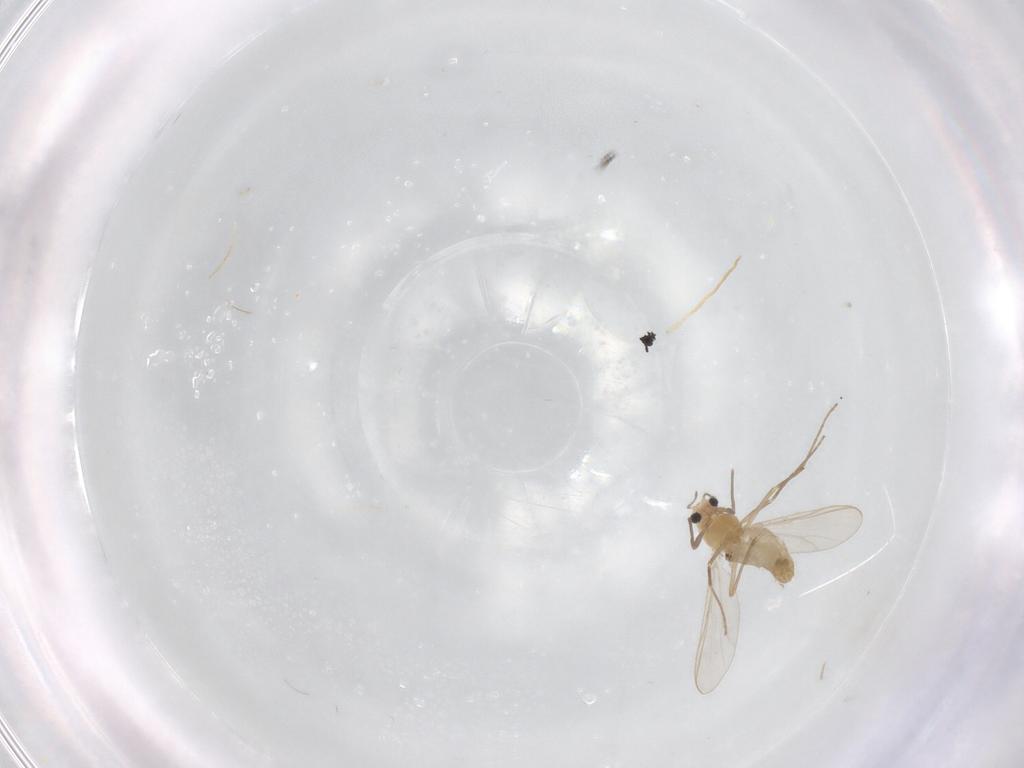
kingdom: Animalia
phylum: Arthropoda
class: Insecta
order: Diptera
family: Chironomidae
